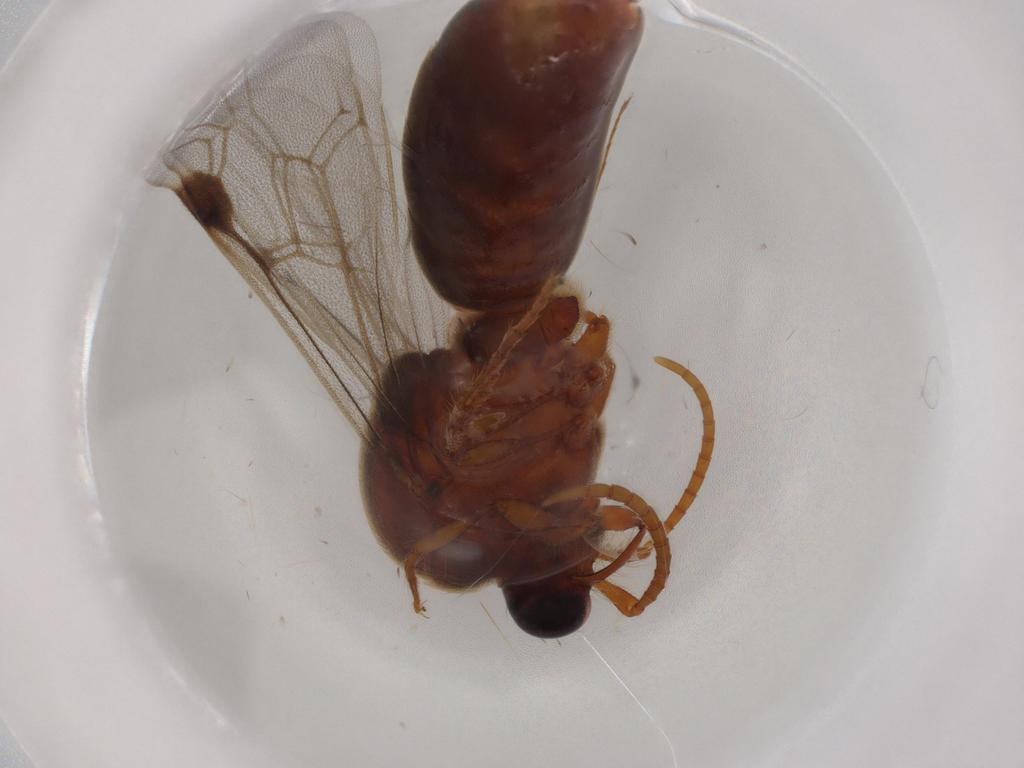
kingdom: Animalia
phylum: Arthropoda
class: Insecta
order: Hymenoptera
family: Formicidae
